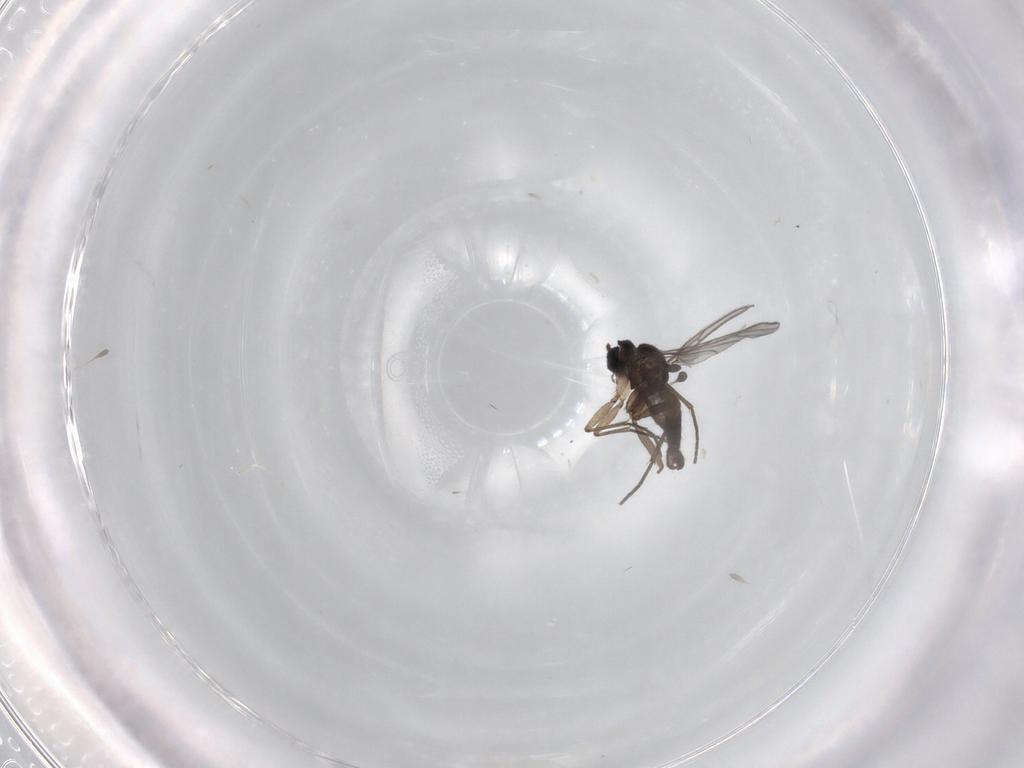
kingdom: Animalia
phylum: Arthropoda
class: Insecta
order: Diptera
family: Sciaridae
